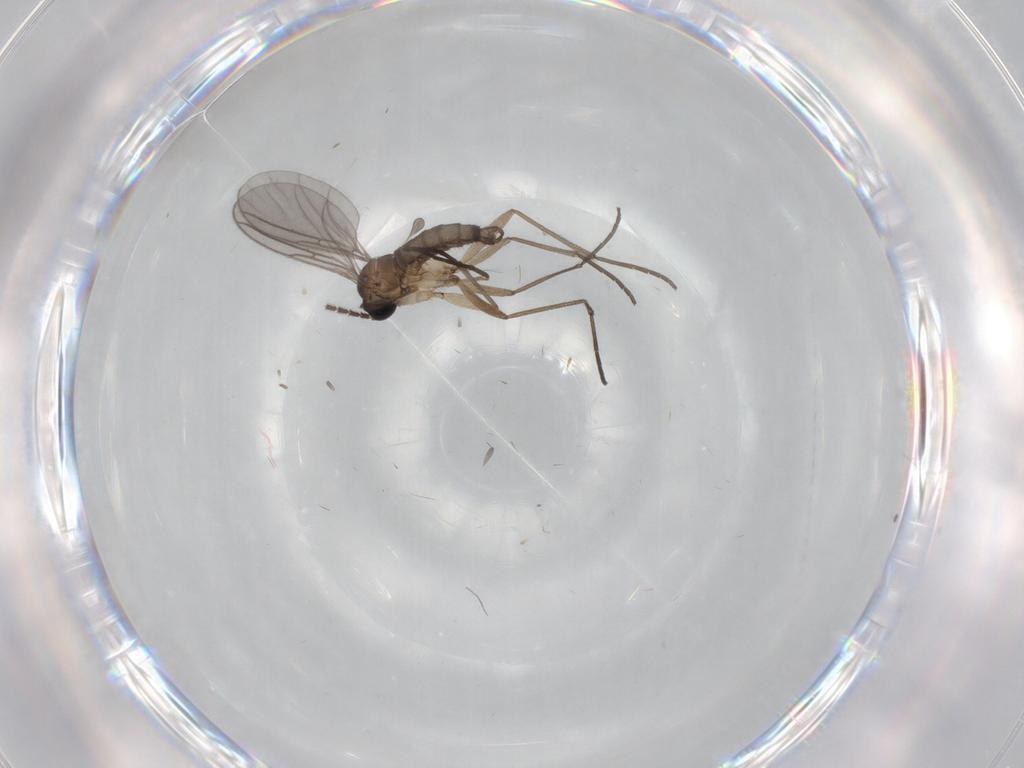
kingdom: Animalia
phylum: Arthropoda
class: Insecta
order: Diptera
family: Sciaridae
